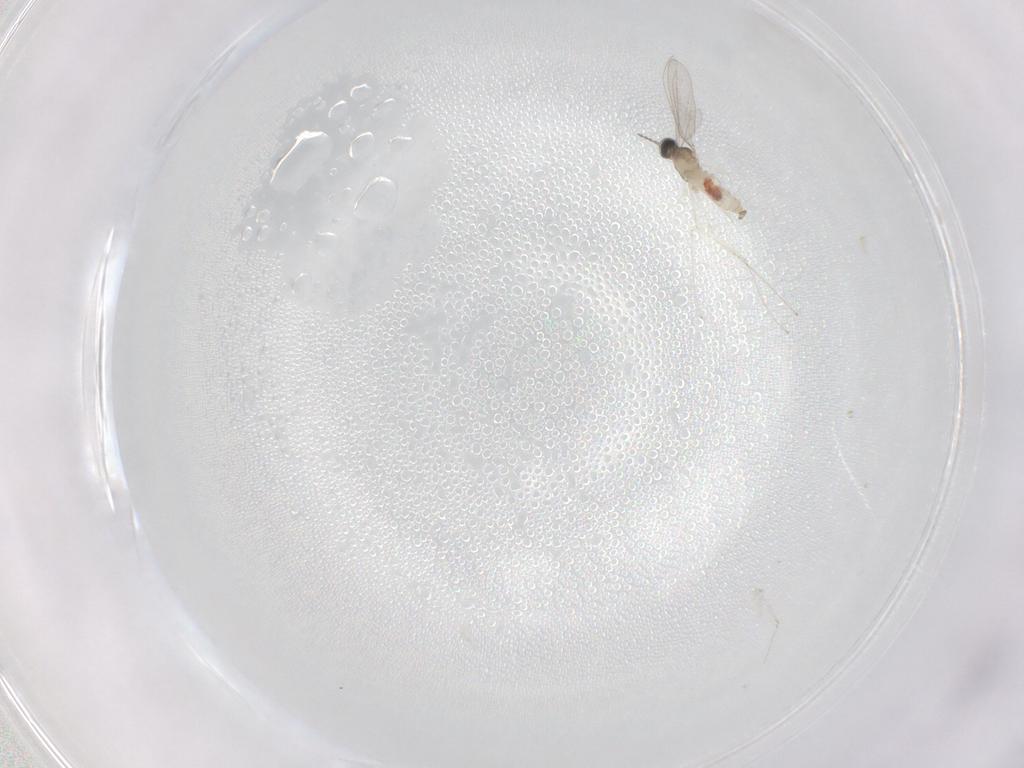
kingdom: Animalia
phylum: Arthropoda
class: Insecta
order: Diptera
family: Cecidomyiidae
